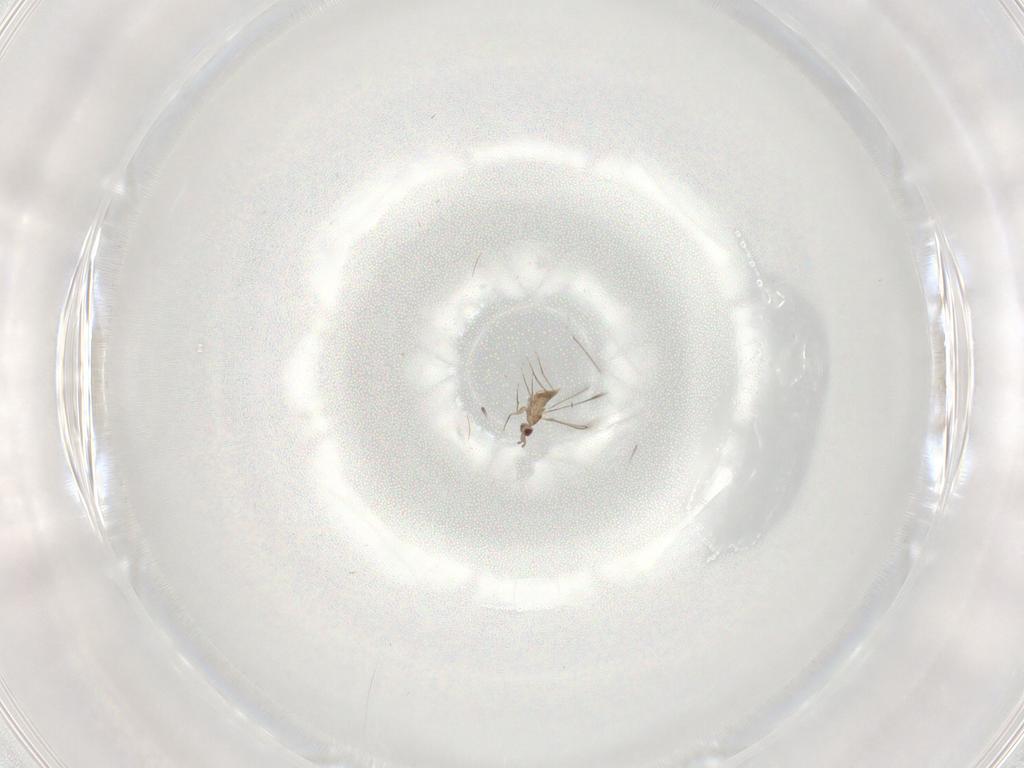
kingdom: Animalia
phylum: Arthropoda
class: Insecta
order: Hymenoptera
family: Mymaridae
